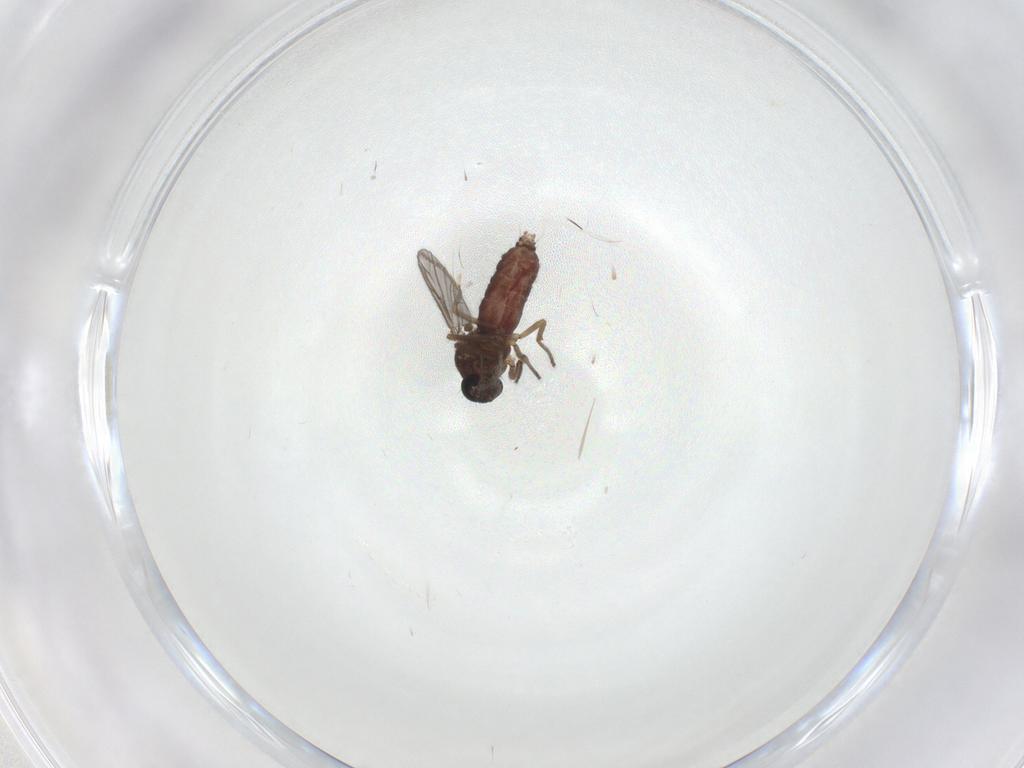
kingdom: Animalia
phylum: Arthropoda
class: Insecta
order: Diptera
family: Ceratopogonidae
